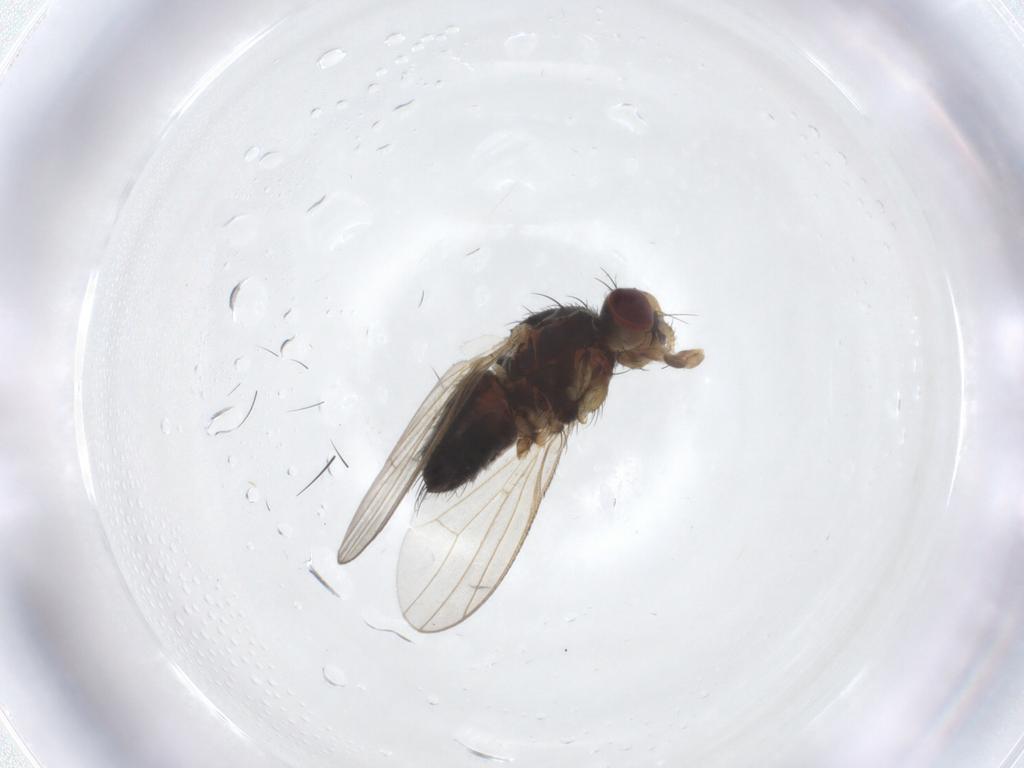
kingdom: Animalia
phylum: Arthropoda
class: Insecta
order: Diptera
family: Heleomyzidae
